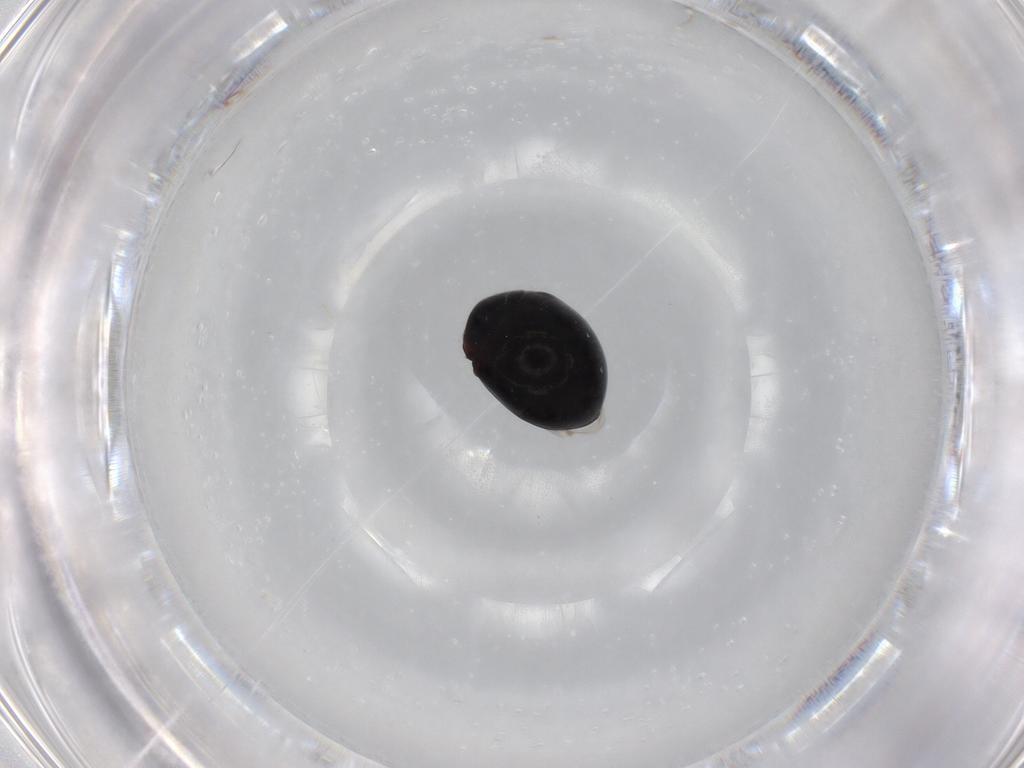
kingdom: Animalia
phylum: Arthropoda
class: Insecta
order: Coleoptera
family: Coccinellidae
